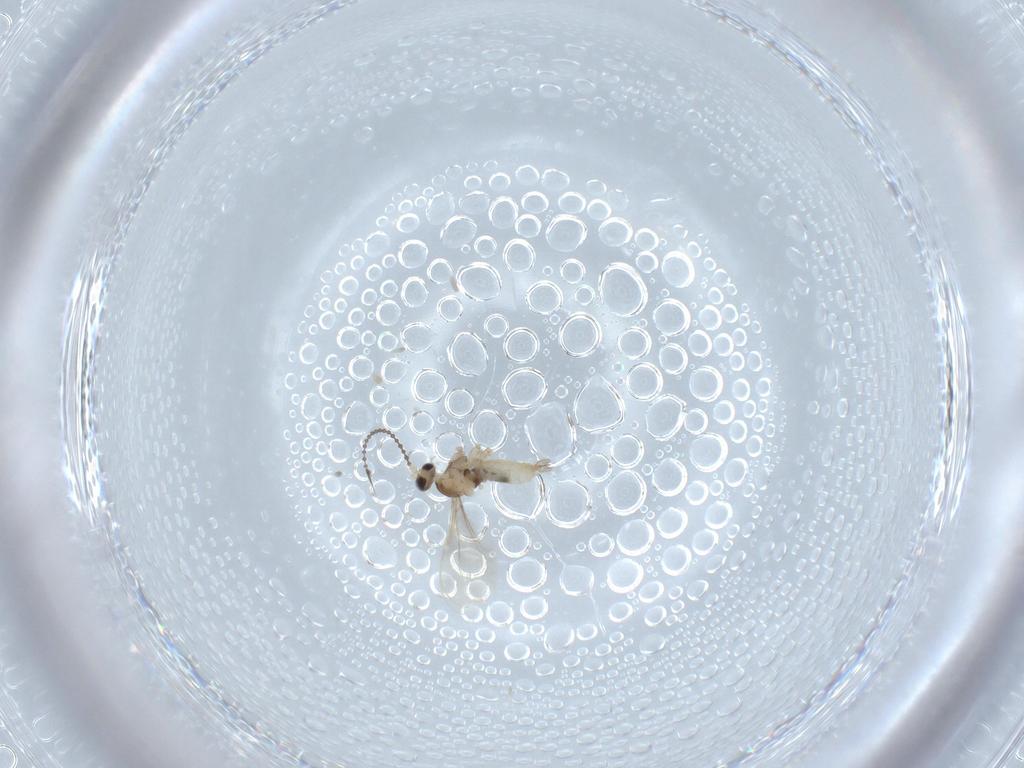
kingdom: Animalia
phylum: Arthropoda
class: Insecta
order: Diptera
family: Cecidomyiidae
